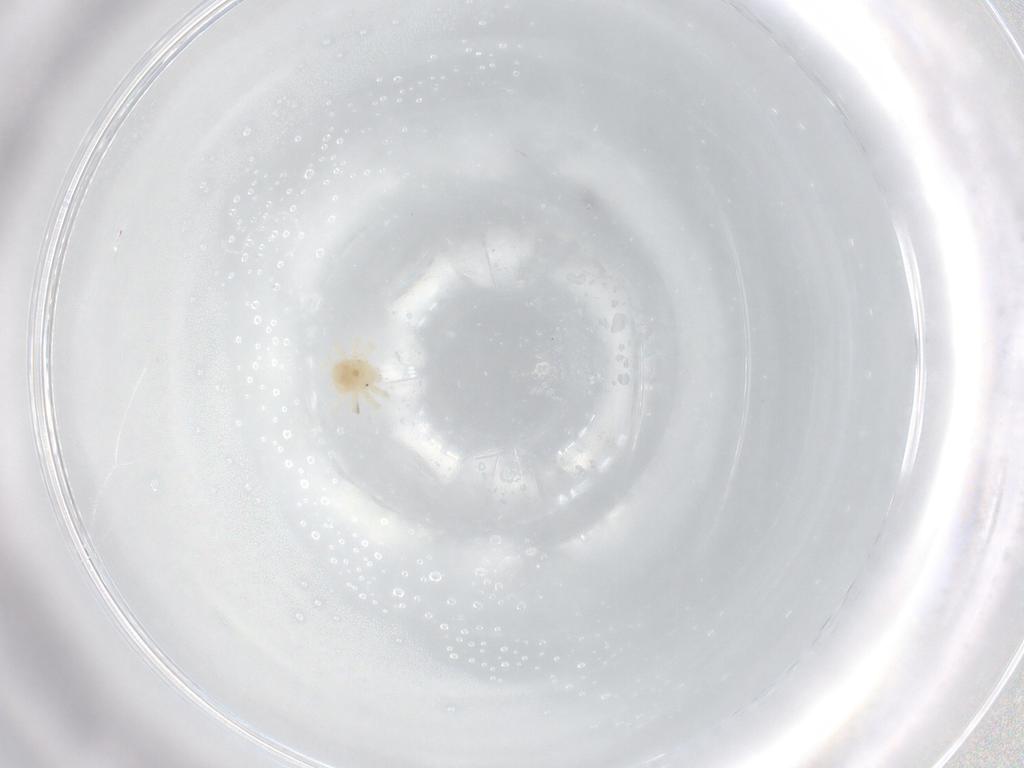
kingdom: Animalia
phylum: Arthropoda
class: Arachnida
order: Trombidiformes
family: Anystidae
